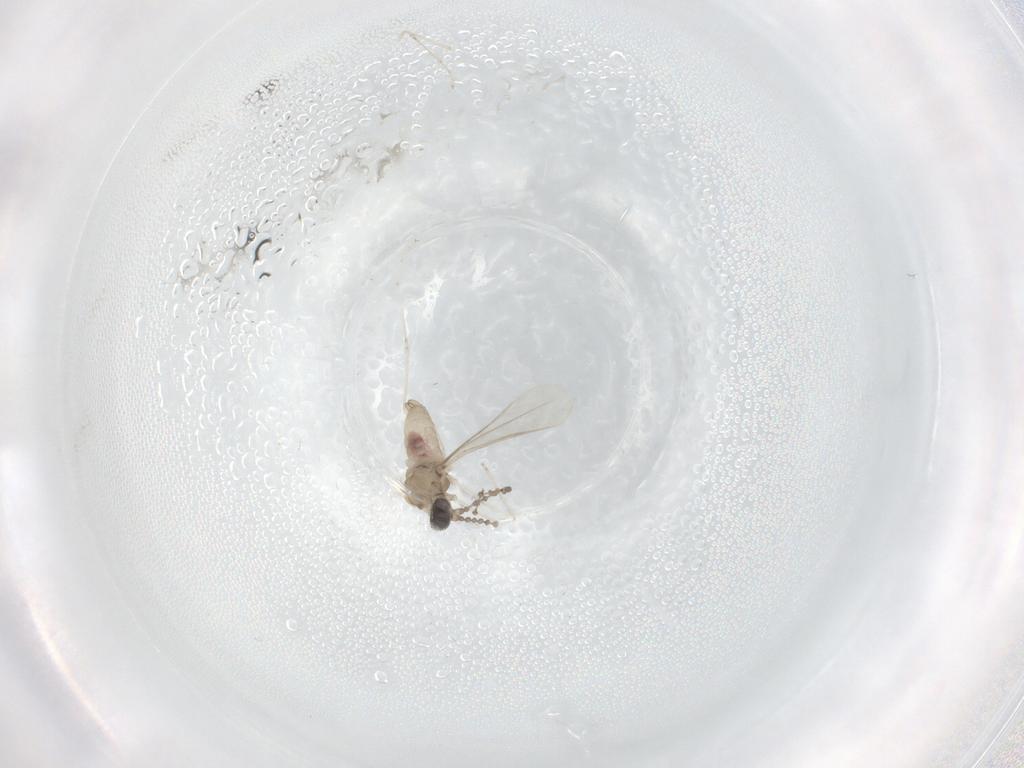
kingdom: Animalia
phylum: Arthropoda
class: Insecta
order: Diptera
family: Cecidomyiidae
